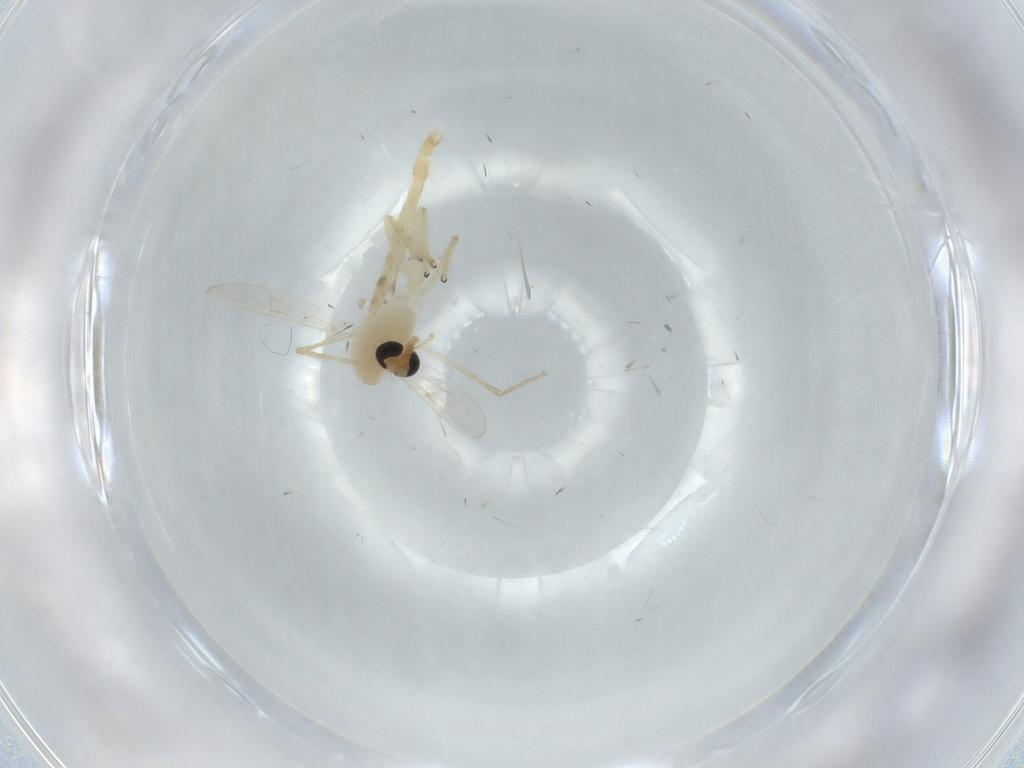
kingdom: Animalia
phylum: Arthropoda
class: Insecta
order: Diptera
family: Chironomidae
